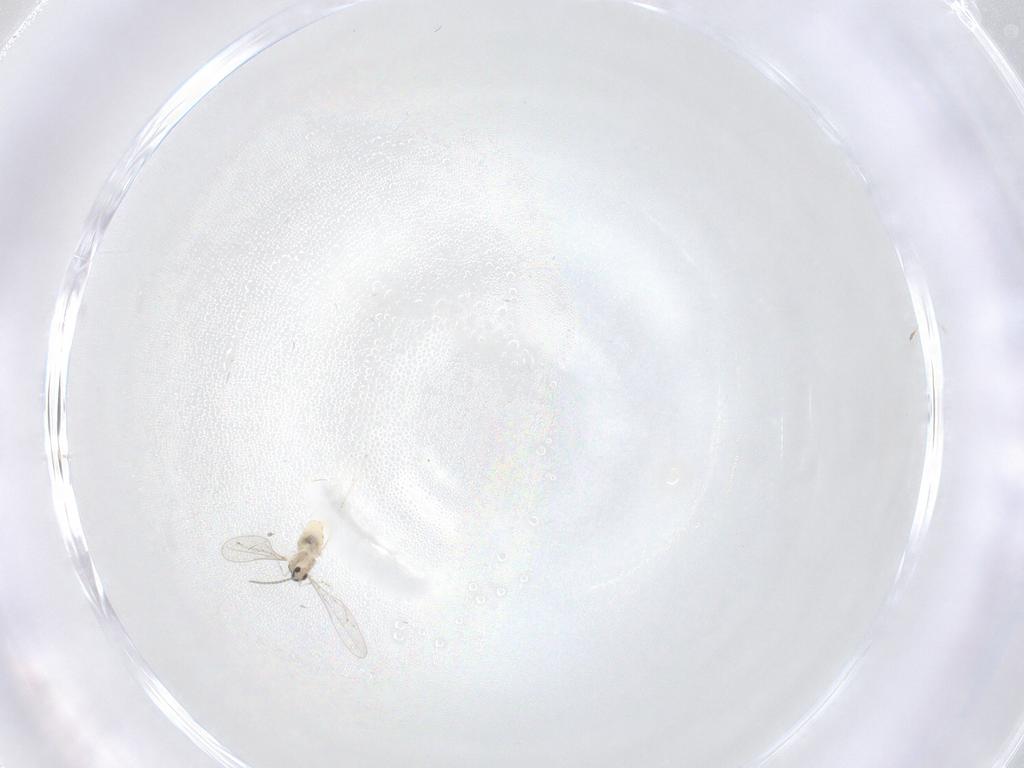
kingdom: Animalia
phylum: Arthropoda
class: Insecta
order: Diptera
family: Cecidomyiidae
